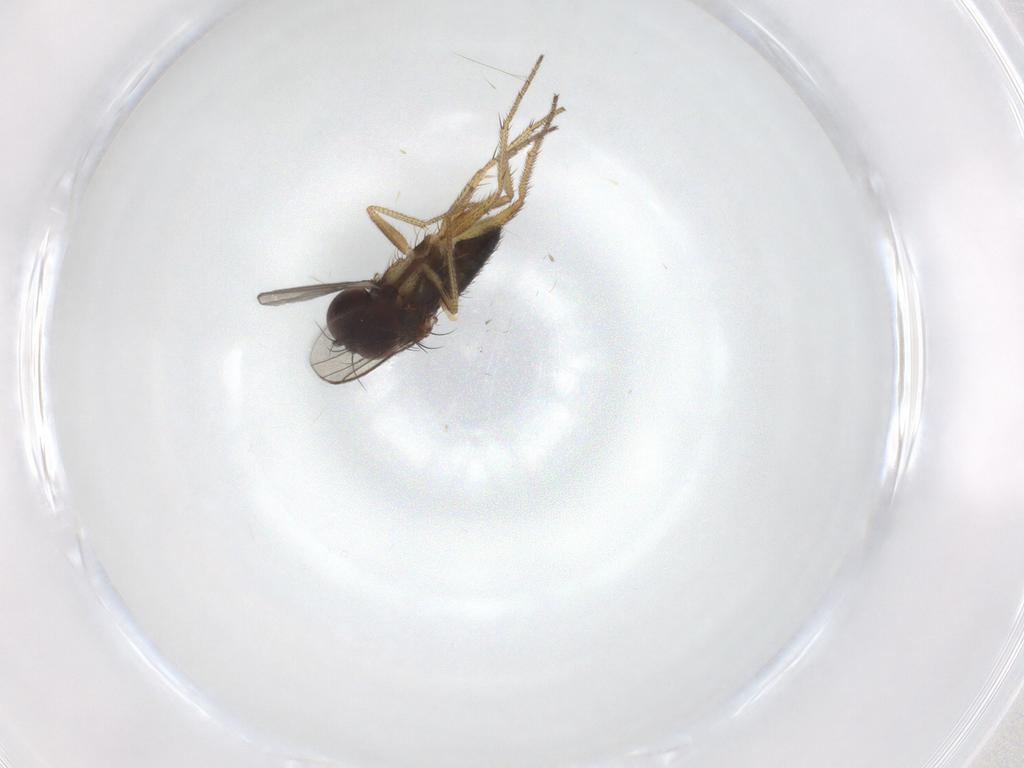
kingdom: Animalia
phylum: Arthropoda
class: Insecta
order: Diptera
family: Dolichopodidae
